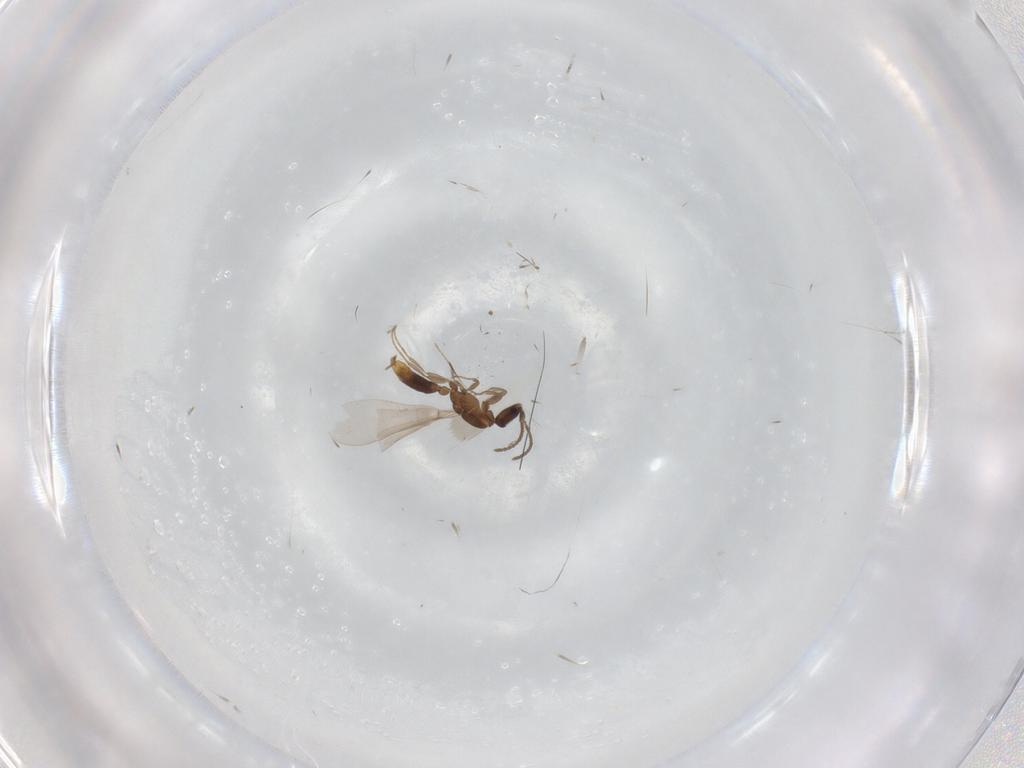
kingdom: Animalia
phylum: Arthropoda
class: Insecta
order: Hymenoptera
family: Formicidae
